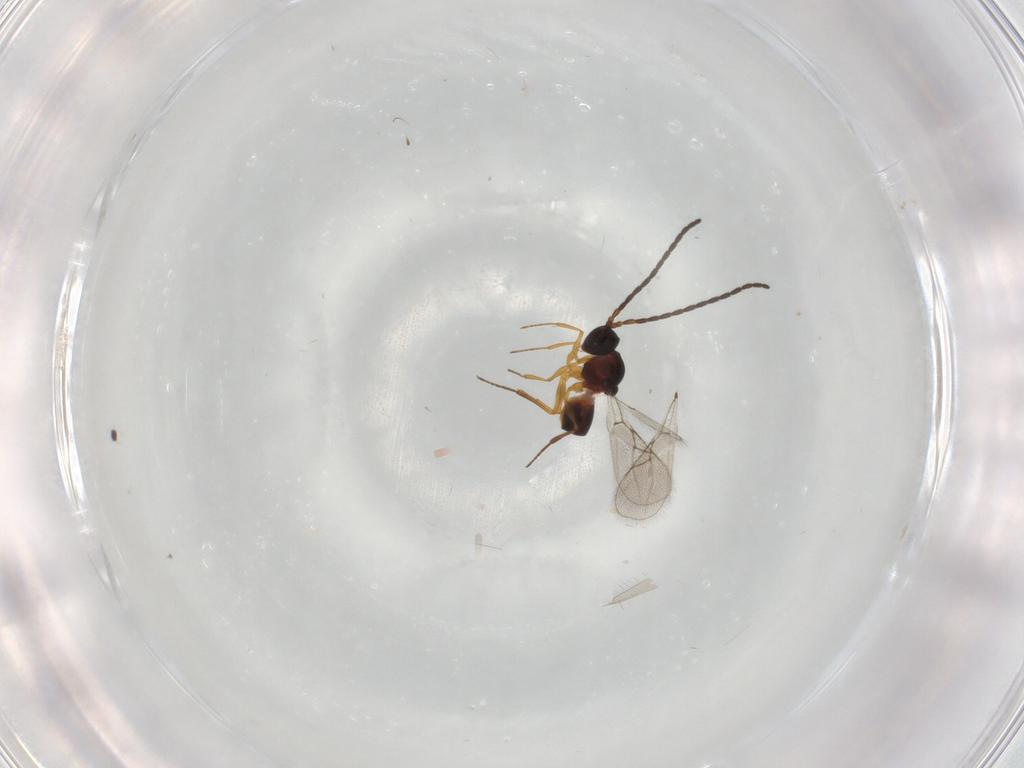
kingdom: Animalia
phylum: Arthropoda
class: Insecta
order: Hymenoptera
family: Figitidae
